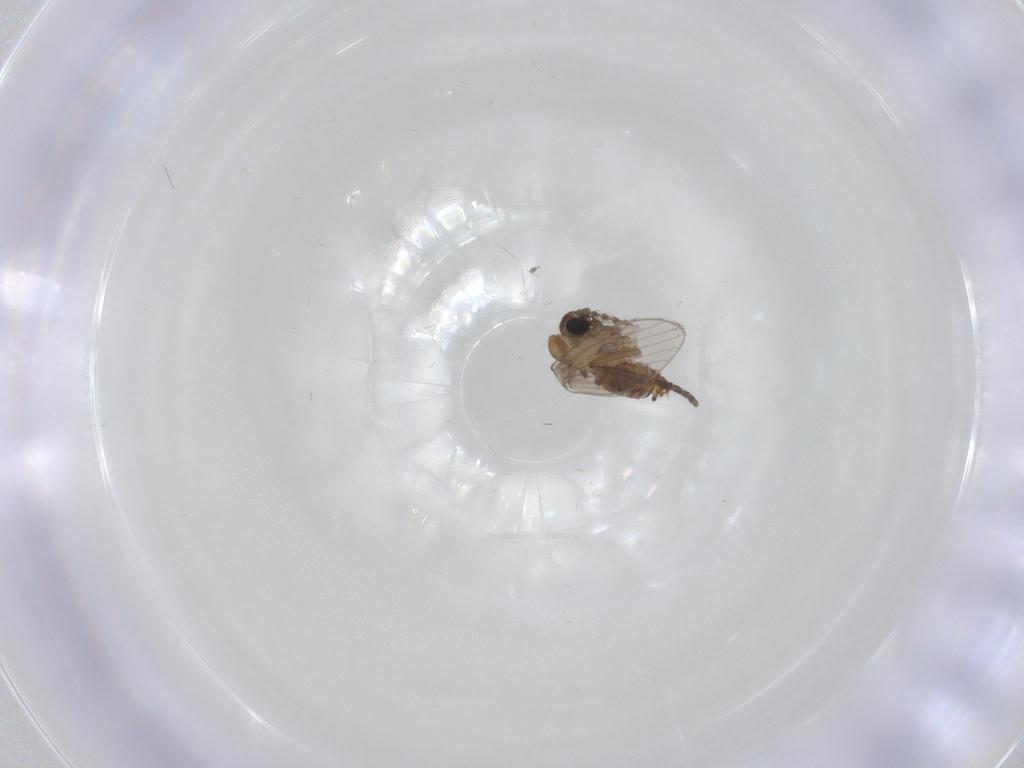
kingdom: Animalia
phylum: Arthropoda
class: Insecta
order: Diptera
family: Psychodidae
